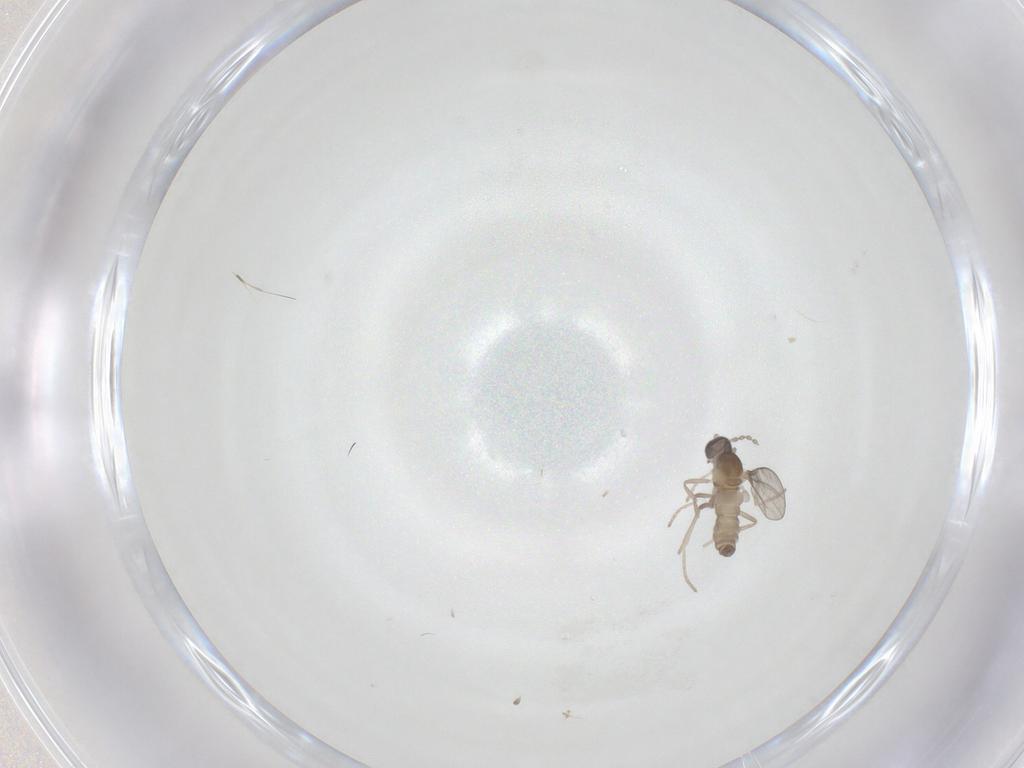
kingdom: Animalia
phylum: Arthropoda
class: Insecta
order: Diptera
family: Cecidomyiidae
